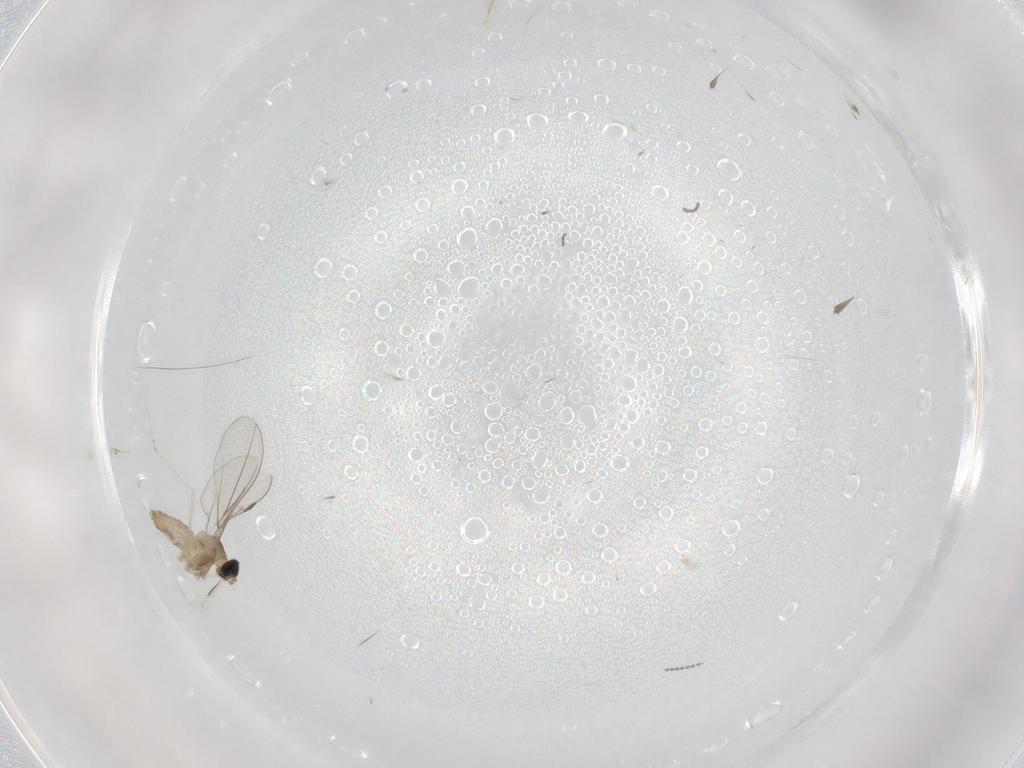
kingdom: Animalia
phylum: Arthropoda
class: Insecta
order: Diptera
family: Cecidomyiidae
